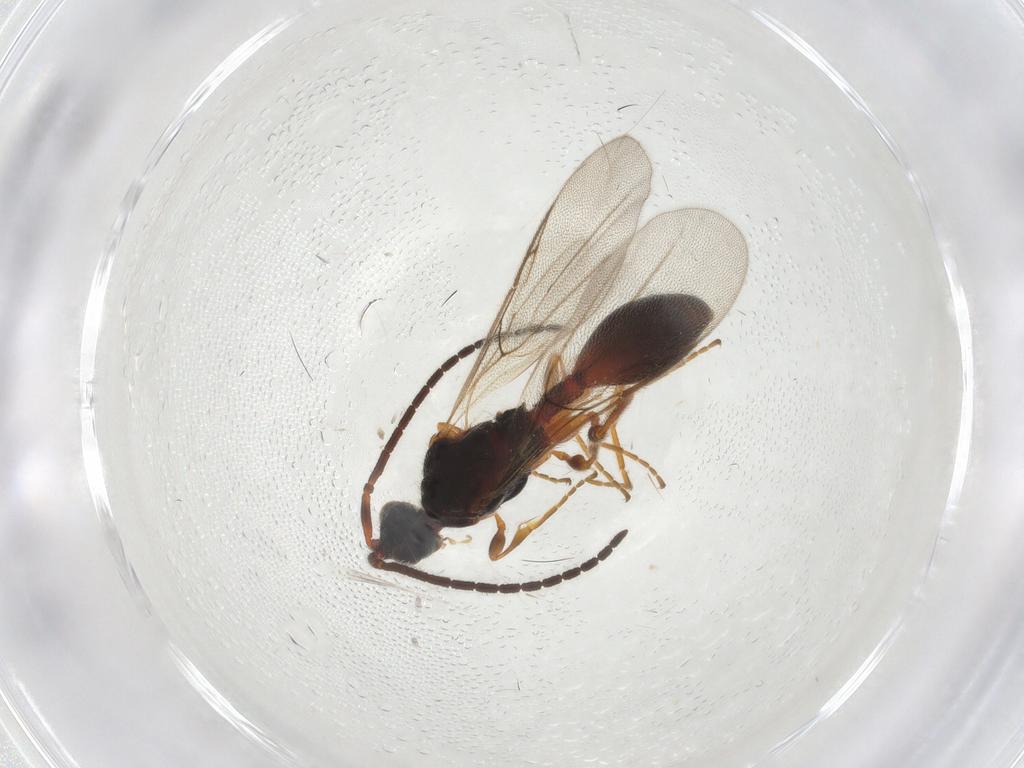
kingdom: Animalia
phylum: Arthropoda
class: Insecta
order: Hymenoptera
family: Diapriidae
